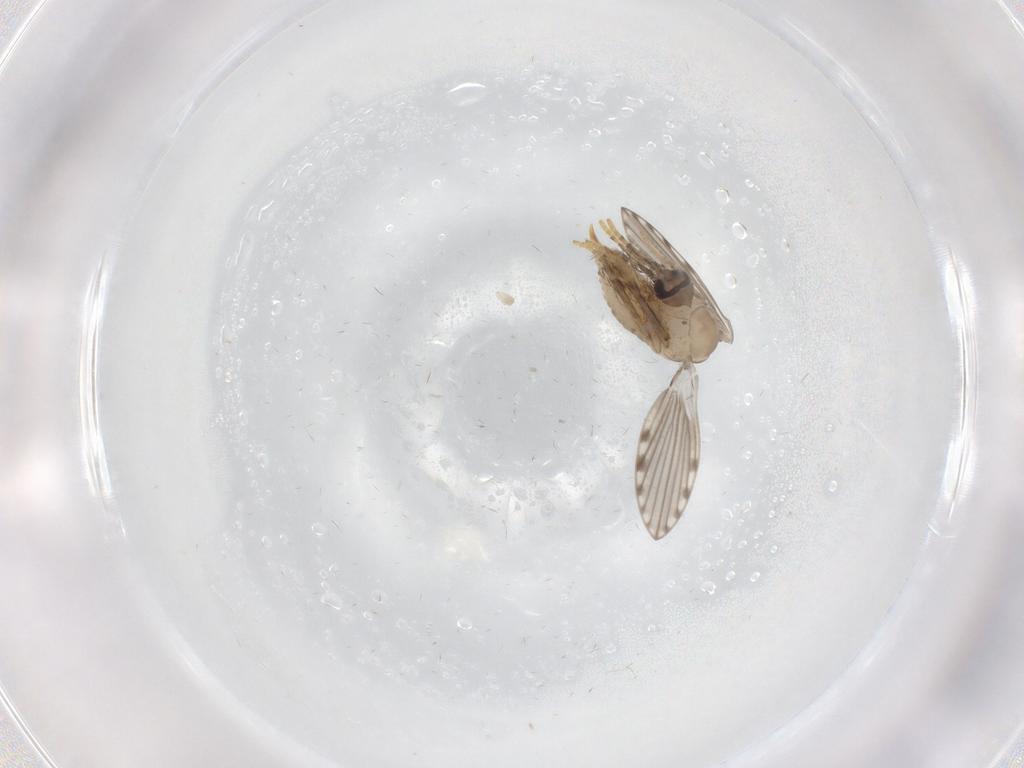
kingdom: Animalia
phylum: Arthropoda
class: Insecta
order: Diptera
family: Psychodidae
